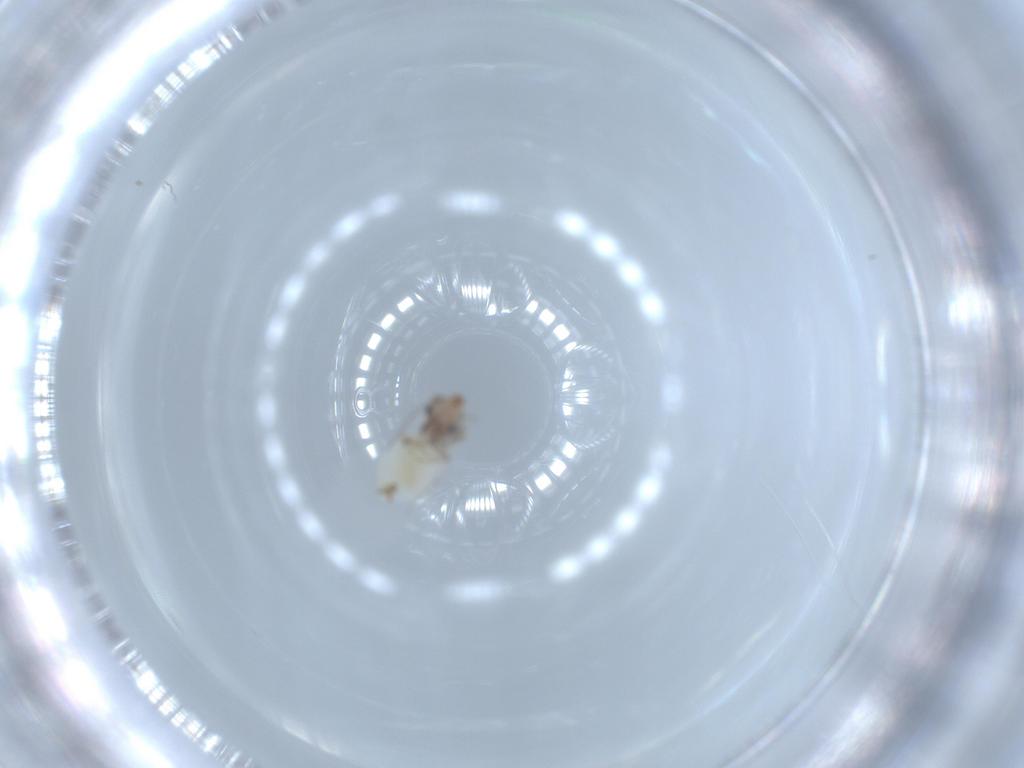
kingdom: Animalia
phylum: Arthropoda
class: Insecta
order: Psocodea
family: Lepidopsocidae
